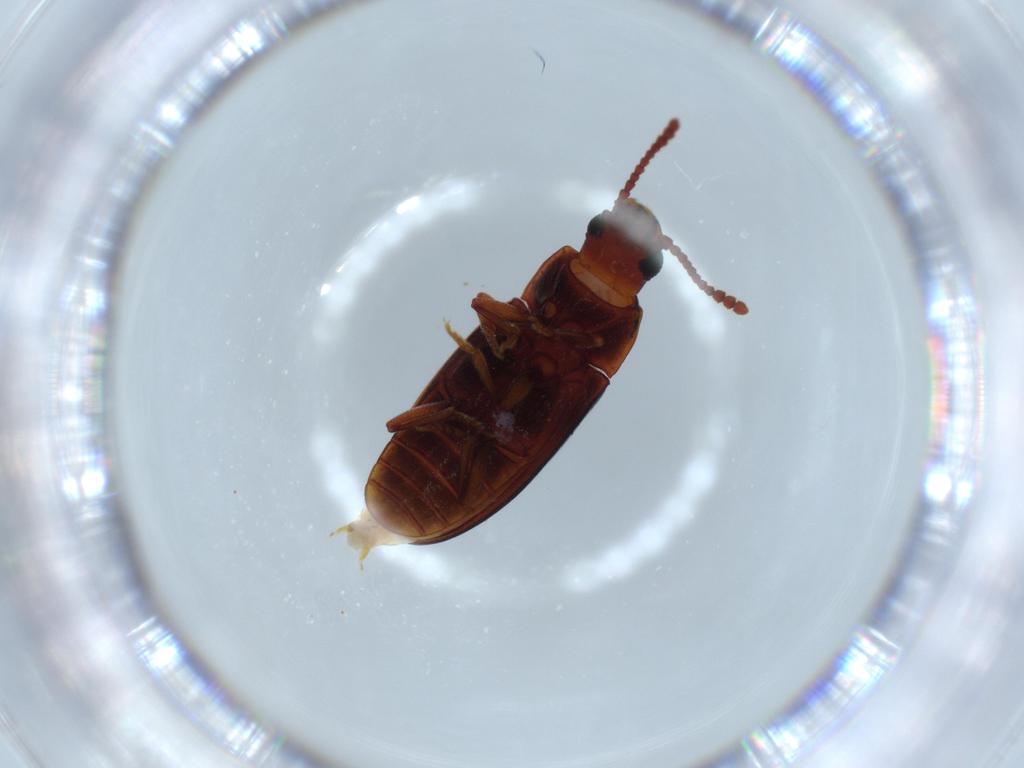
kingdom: Animalia
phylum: Arthropoda
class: Insecta
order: Coleoptera
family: Erotylidae
